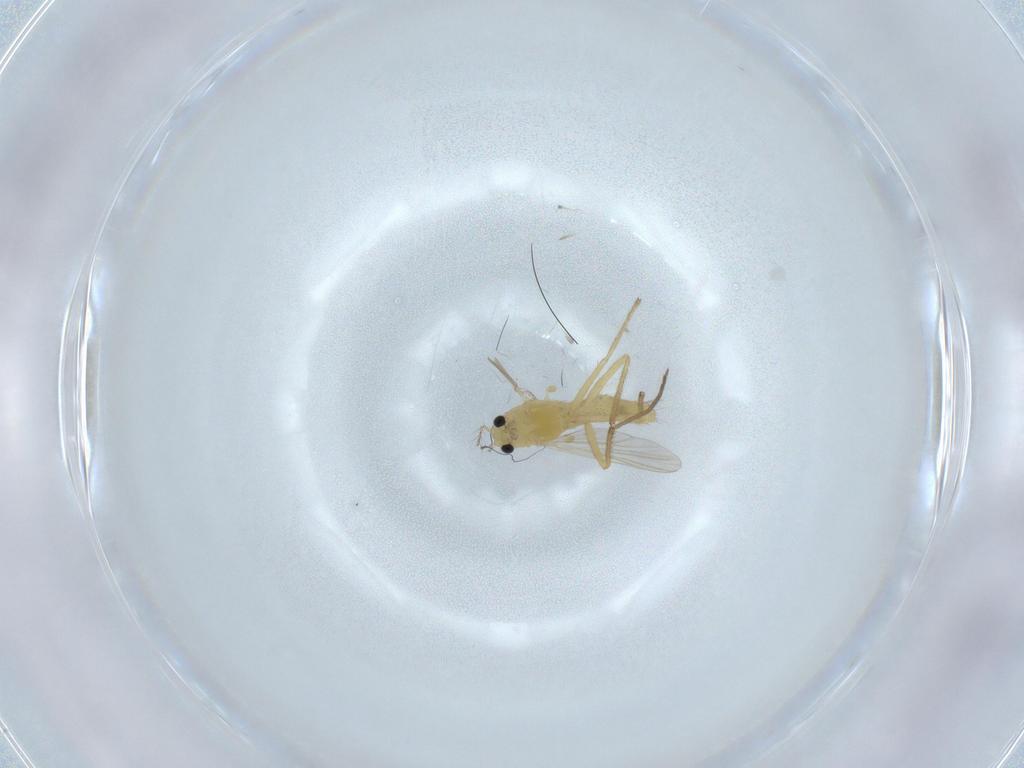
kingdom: Animalia
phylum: Arthropoda
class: Insecta
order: Diptera
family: Chironomidae
